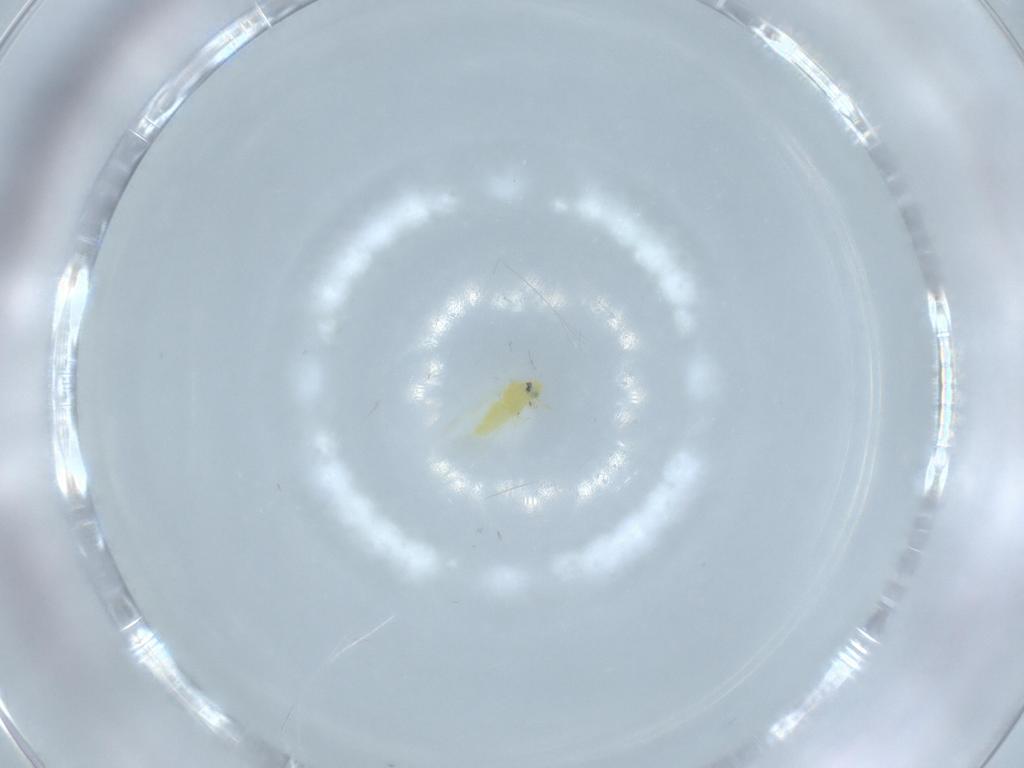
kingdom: Animalia
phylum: Arthropoda
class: Insecta
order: Hemiptera
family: Aleyrodidae
